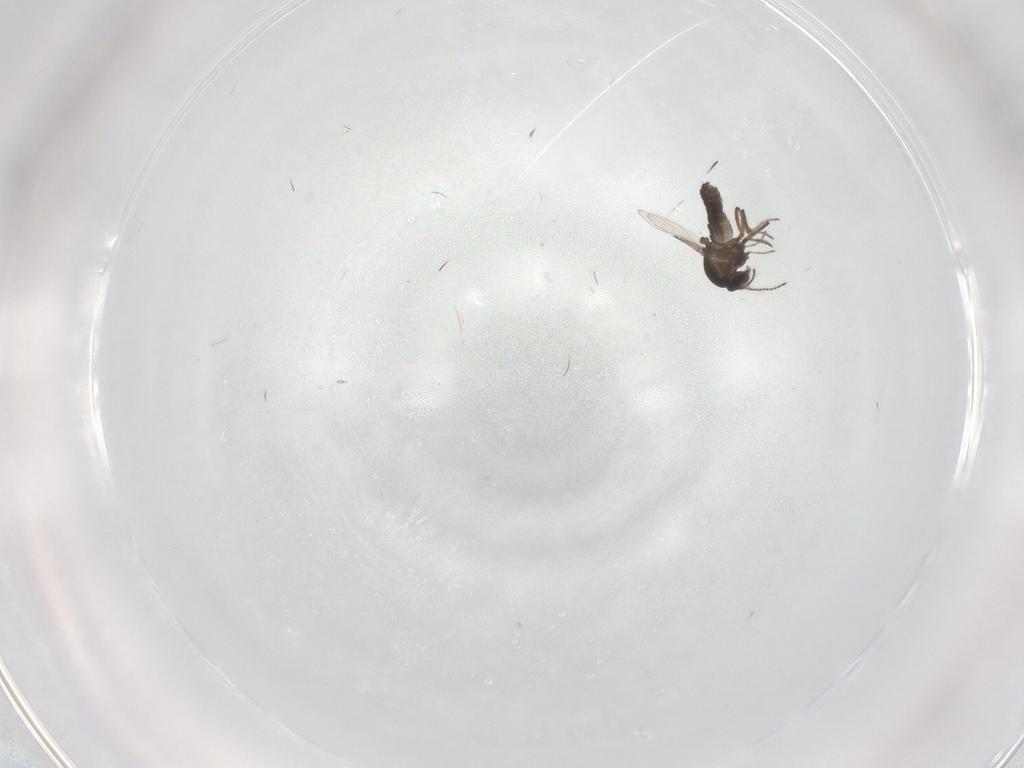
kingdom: Animalia
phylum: Arthropoda
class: Insecta
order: Diptera
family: Ceratopogonidae
